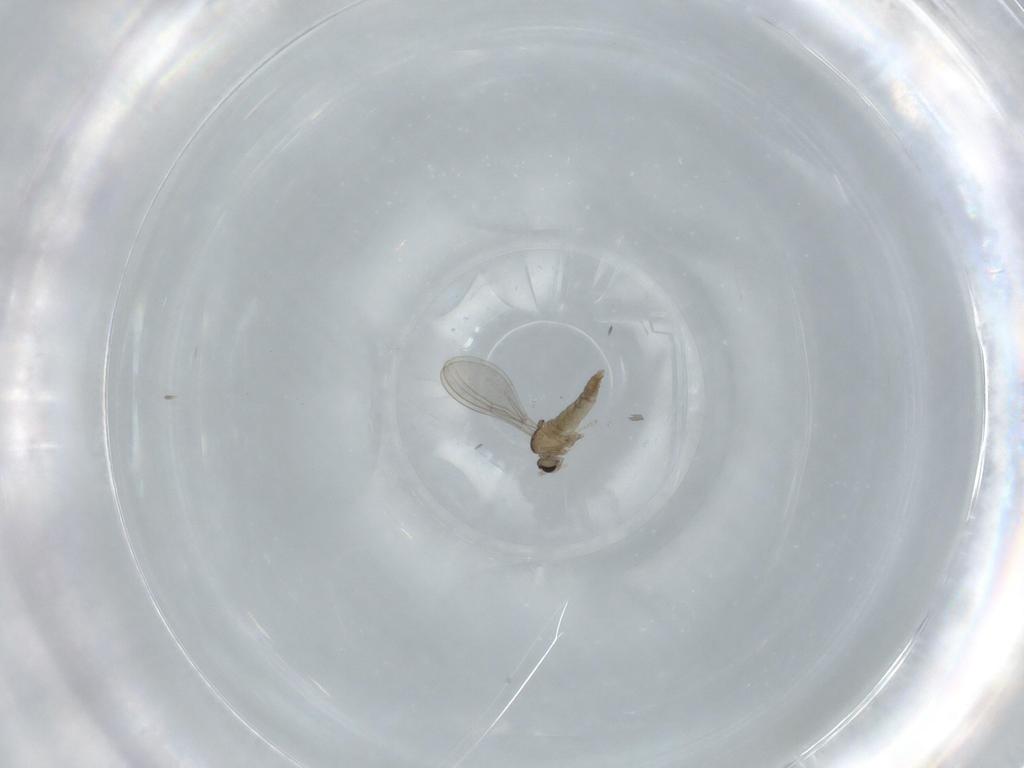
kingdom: Animalia
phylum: Arthropoda
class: Insecta
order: Diptera
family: Cecidomyiidae
